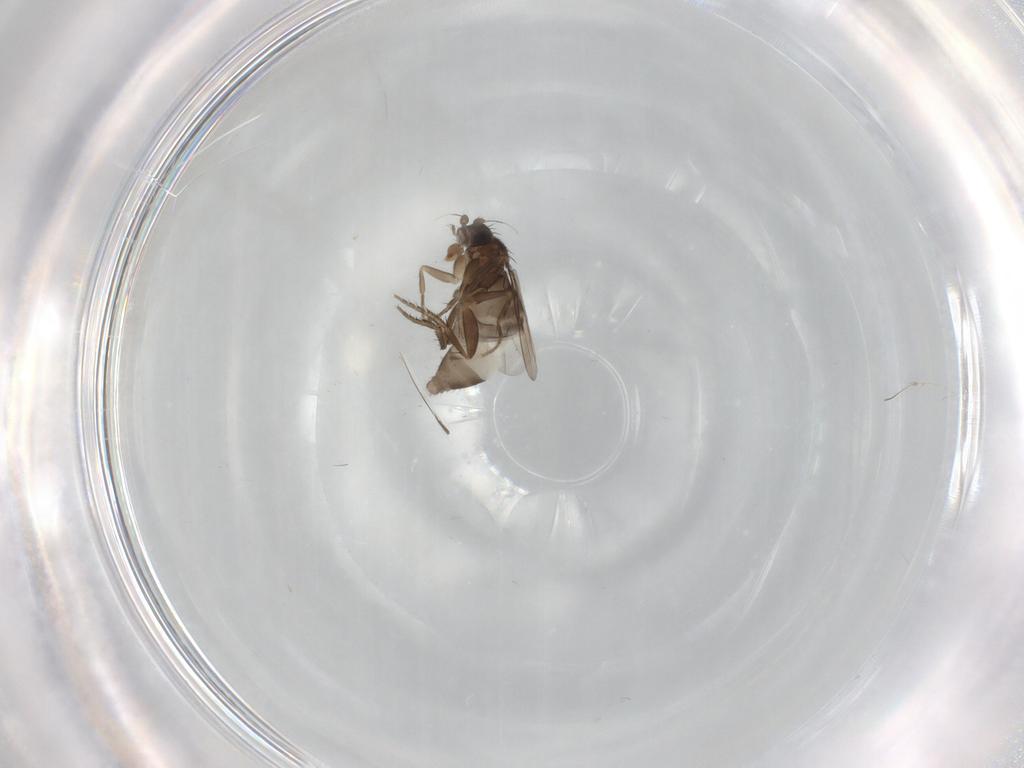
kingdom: Animalia
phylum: Arthropoda
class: Insecta
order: Diptera
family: Phoridae
